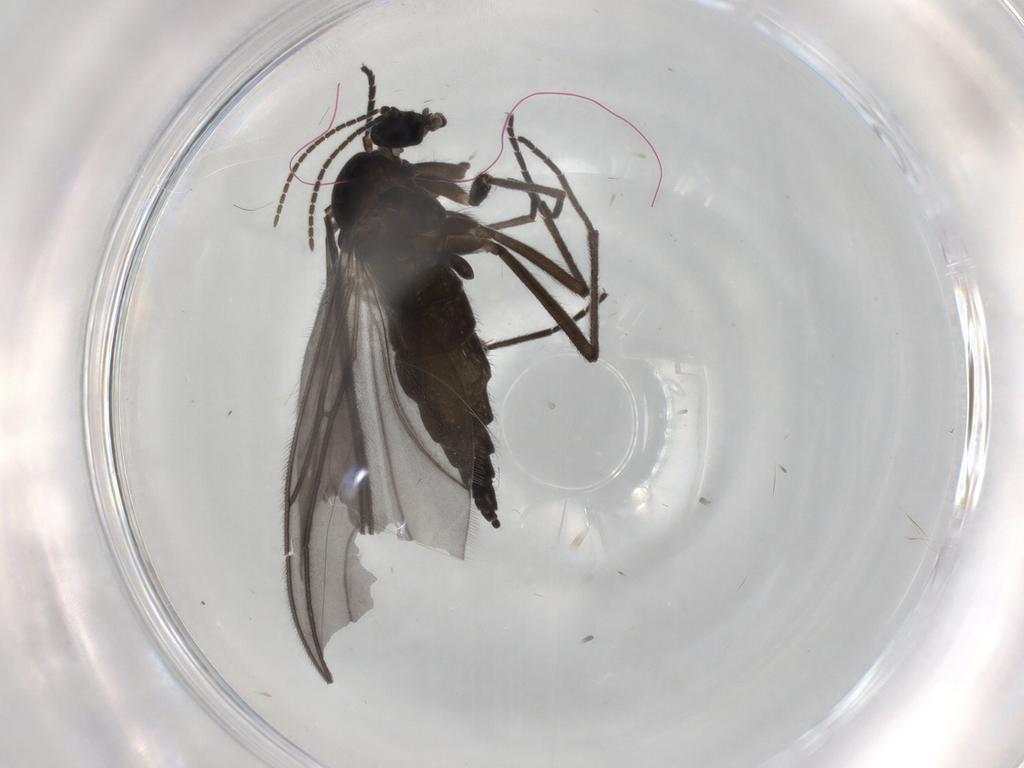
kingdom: Animalia
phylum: Arthropoda
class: Insecta
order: Diptera
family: Sciaridae
